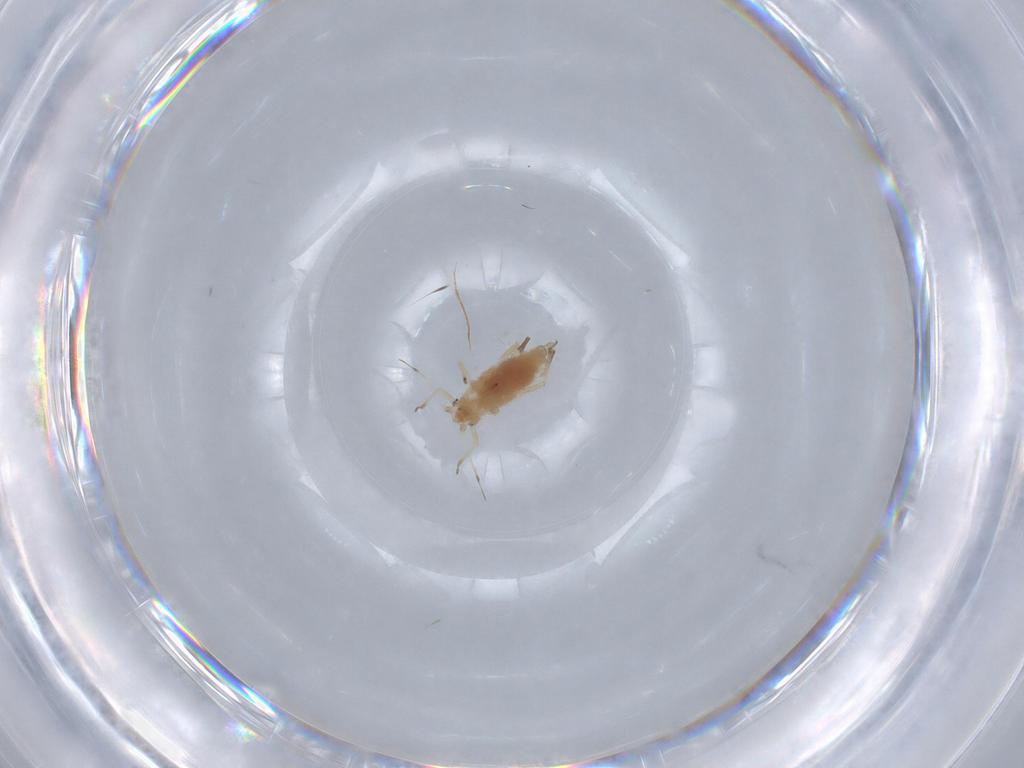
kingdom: Animalia
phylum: Arthropoda
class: Insecta
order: Hemiptera
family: Aphididae
